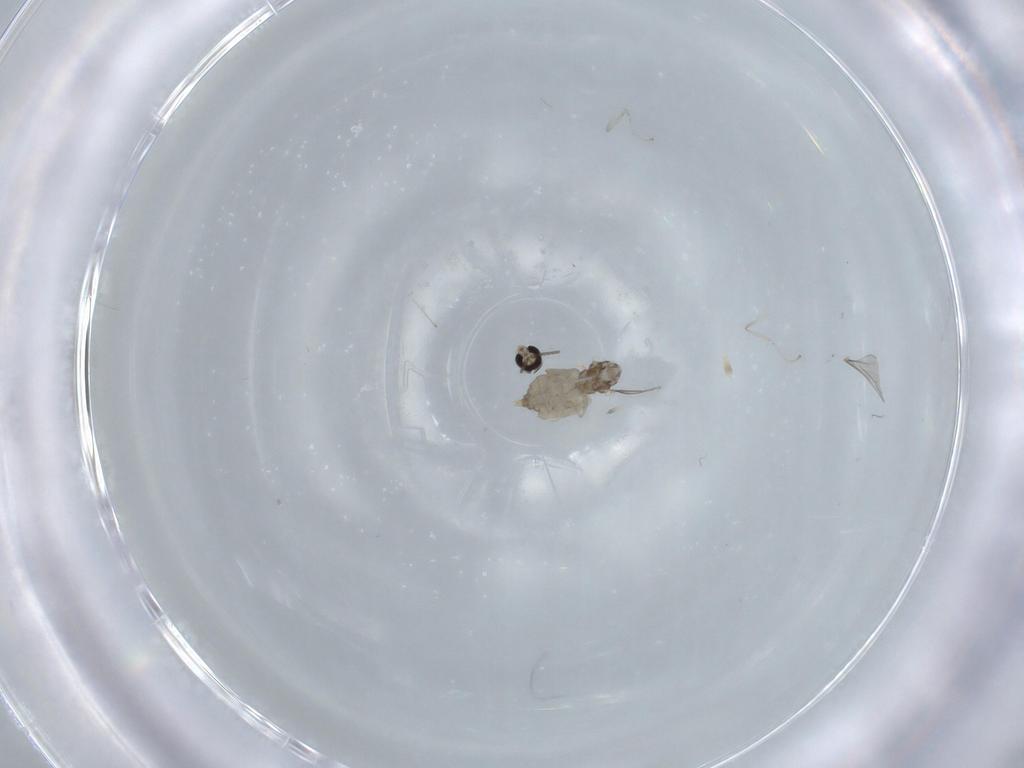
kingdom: Animalia
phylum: Arthropoda
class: Insecta
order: Diptera
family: Cecidomyiidae
